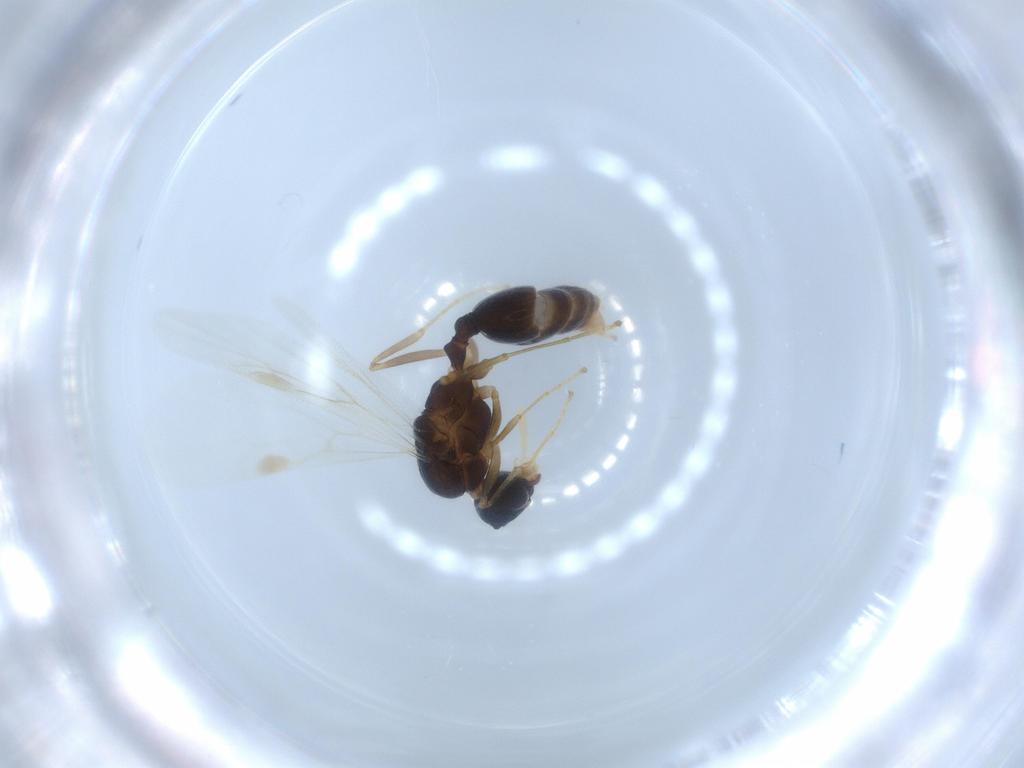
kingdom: Animalia
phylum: Arthropoda
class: Insecta
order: Hymenoptera
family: Formicidae
